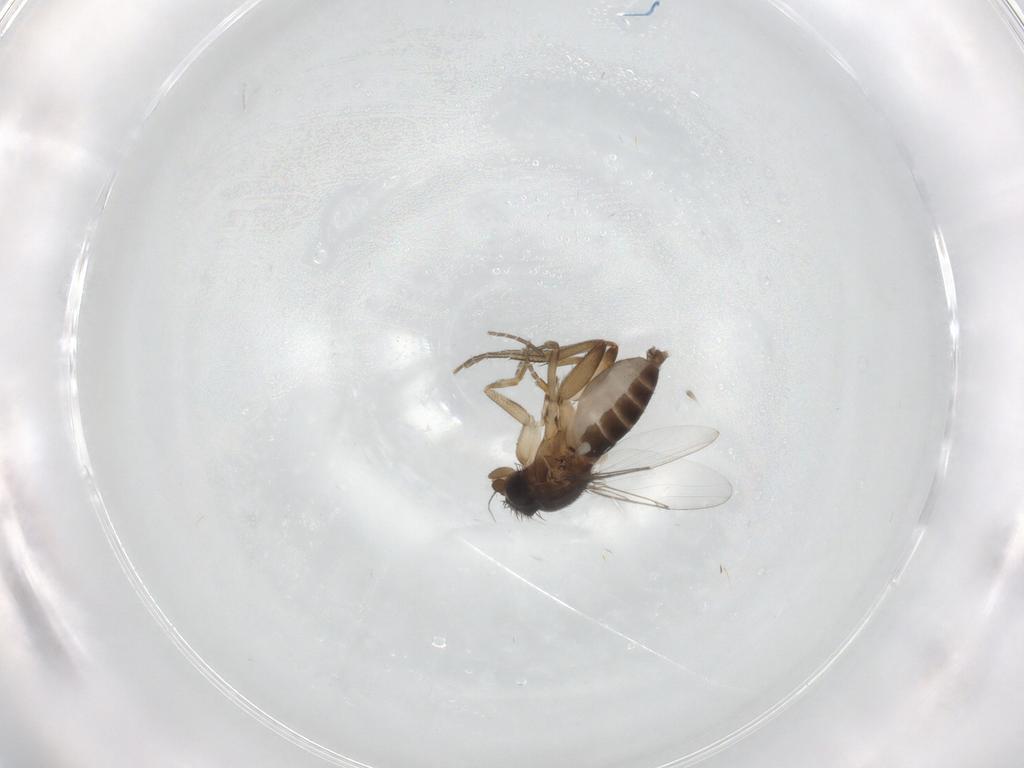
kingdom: Animalia
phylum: Arthropoda
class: Insecta
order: Diptera
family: Phoridae
